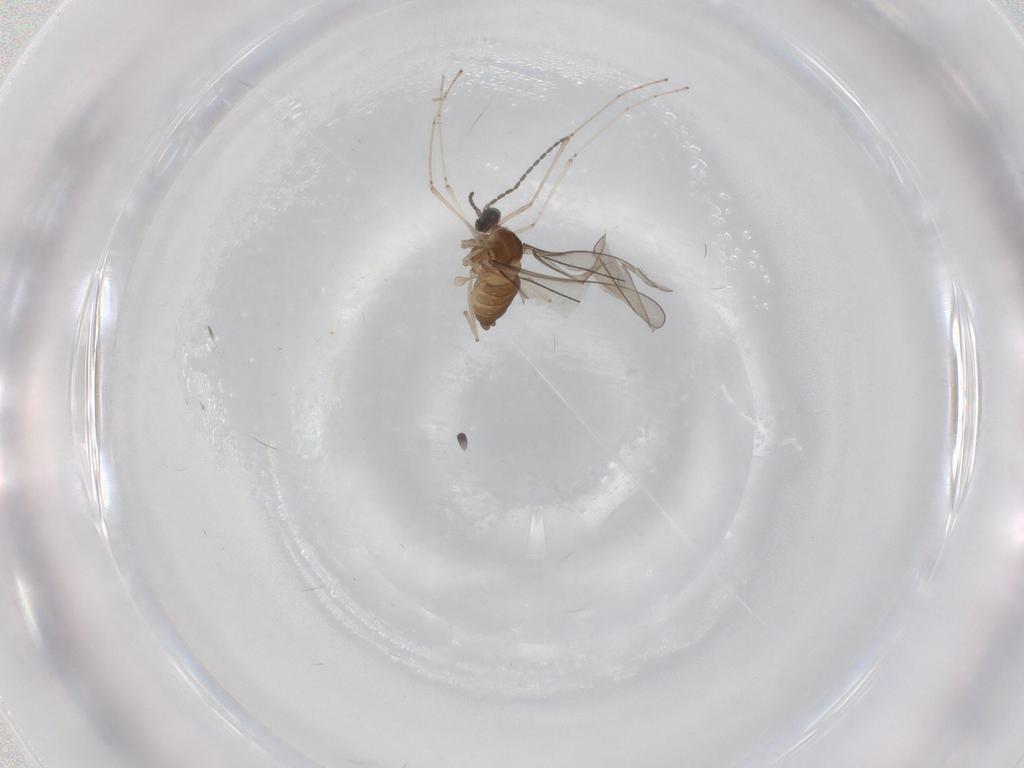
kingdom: Animalia
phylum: Arthropoda
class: Insecta
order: Diptera
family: Cecidomyiidae
